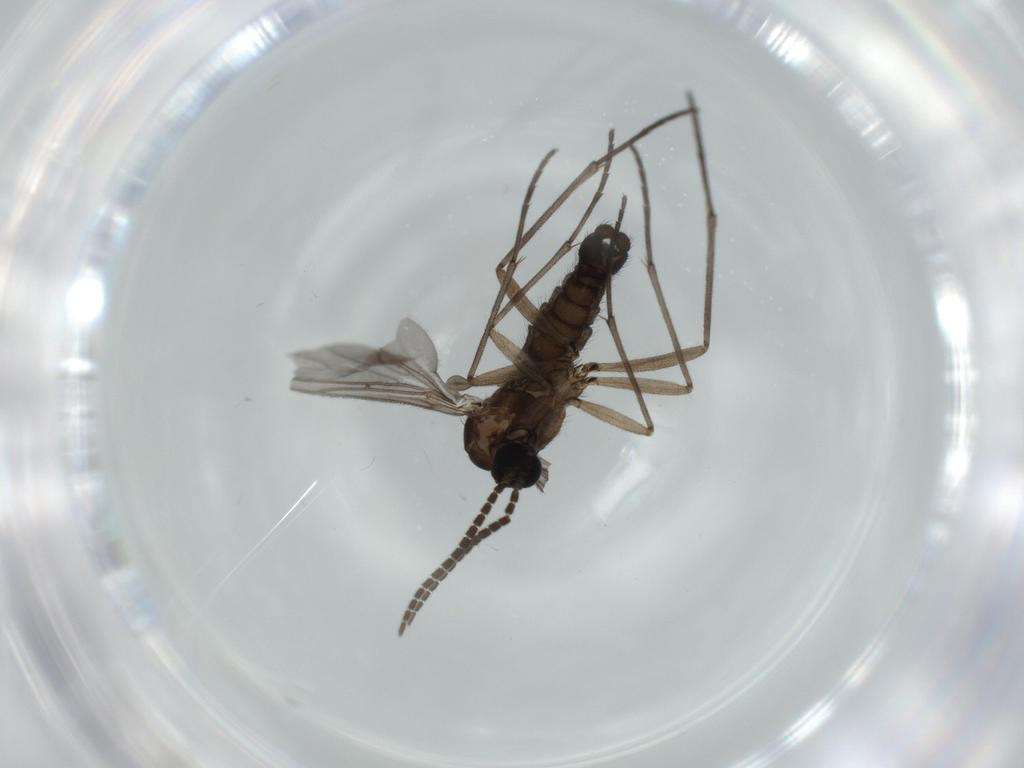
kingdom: Animalia
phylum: Arthropoda
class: Insecta
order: Diptera
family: Sciaridae
